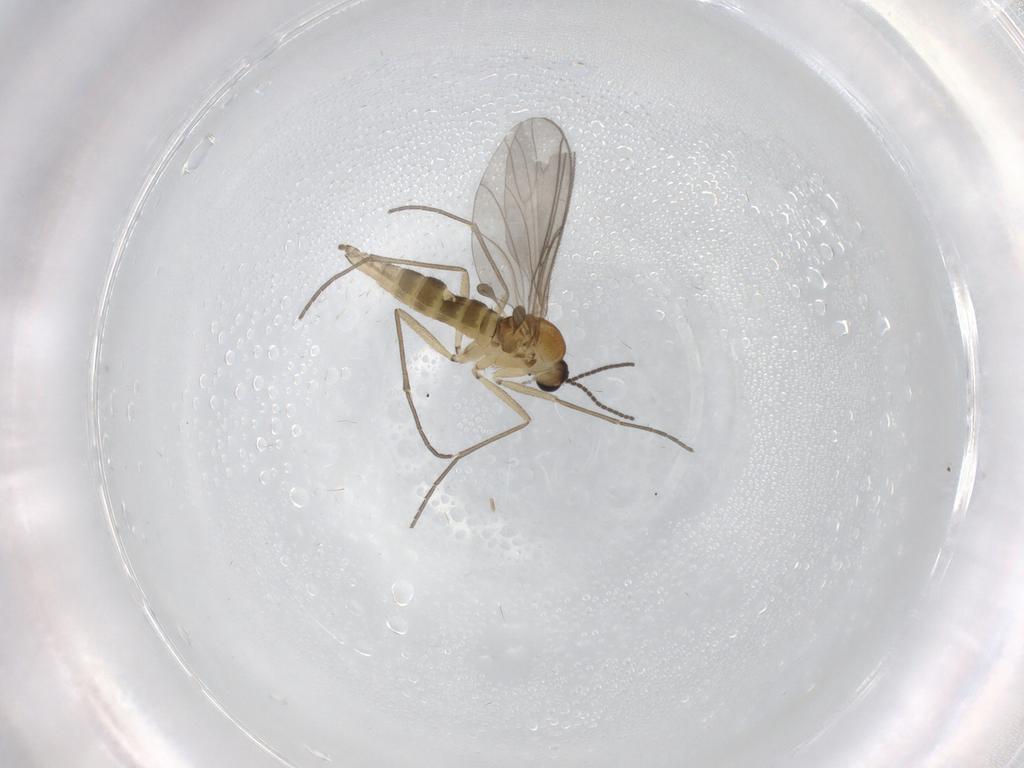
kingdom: Animalia
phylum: Arthropoda
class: Insecta
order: Diptera
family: Sciaridae
